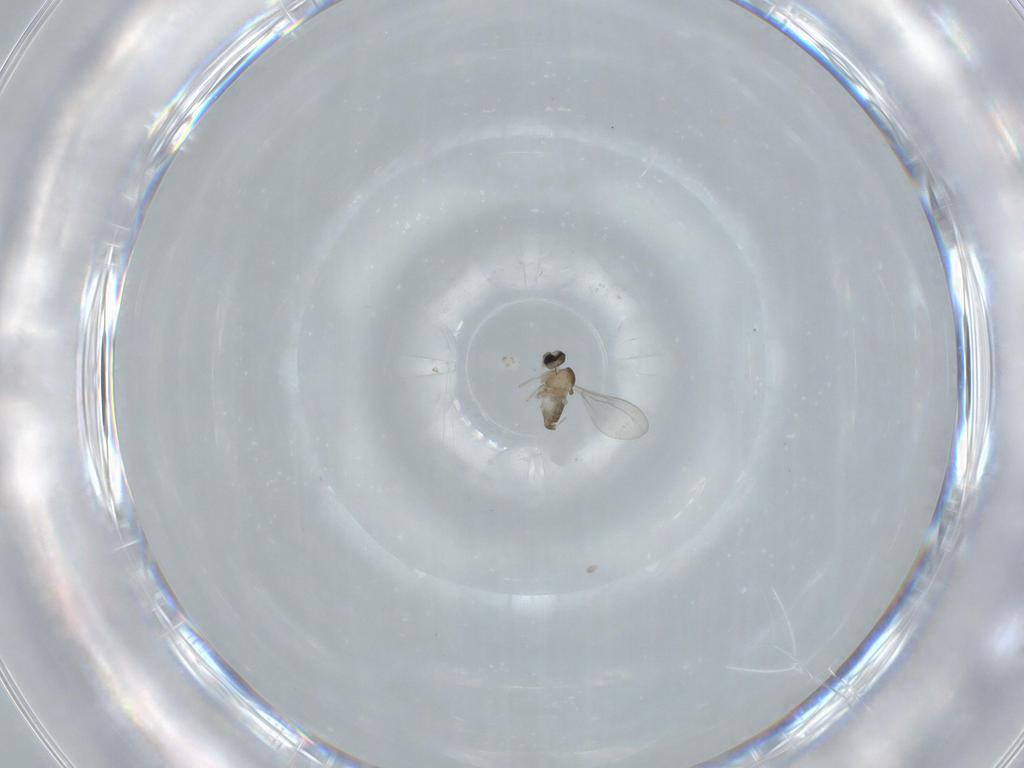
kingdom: Animalia
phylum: Arthropoda
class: Insecta
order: Diptera
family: Cecidomyiidae
